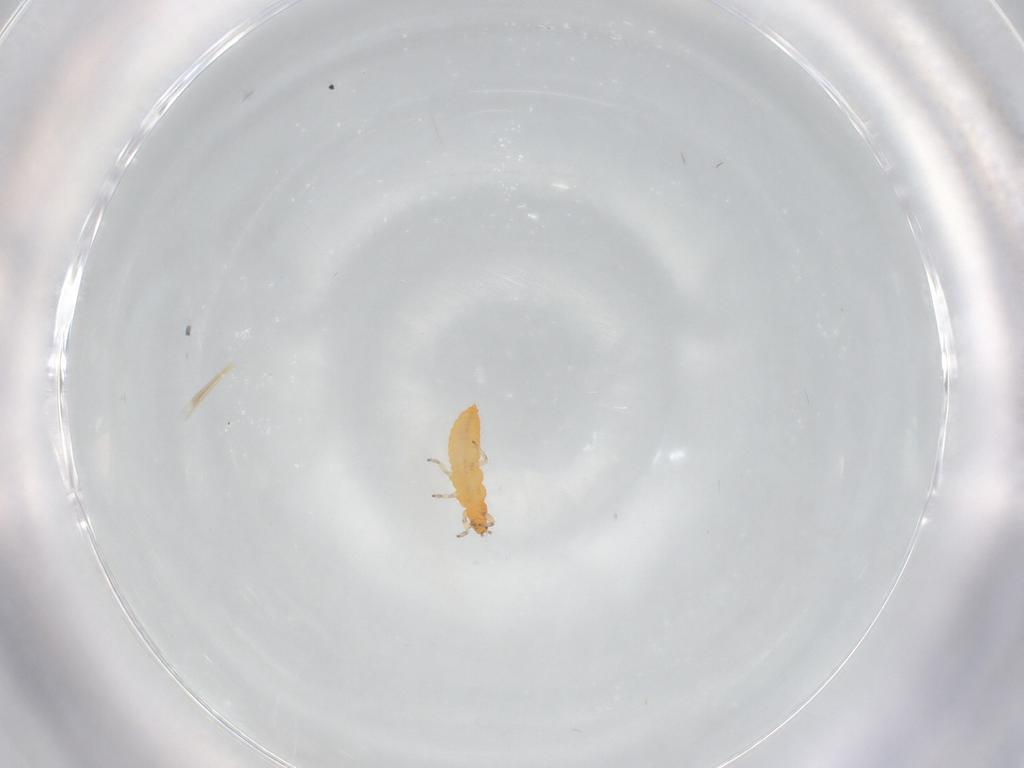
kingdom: Animalia
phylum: Arthropoda
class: Insecta
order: Thysanoptera
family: Aeolothripidae
